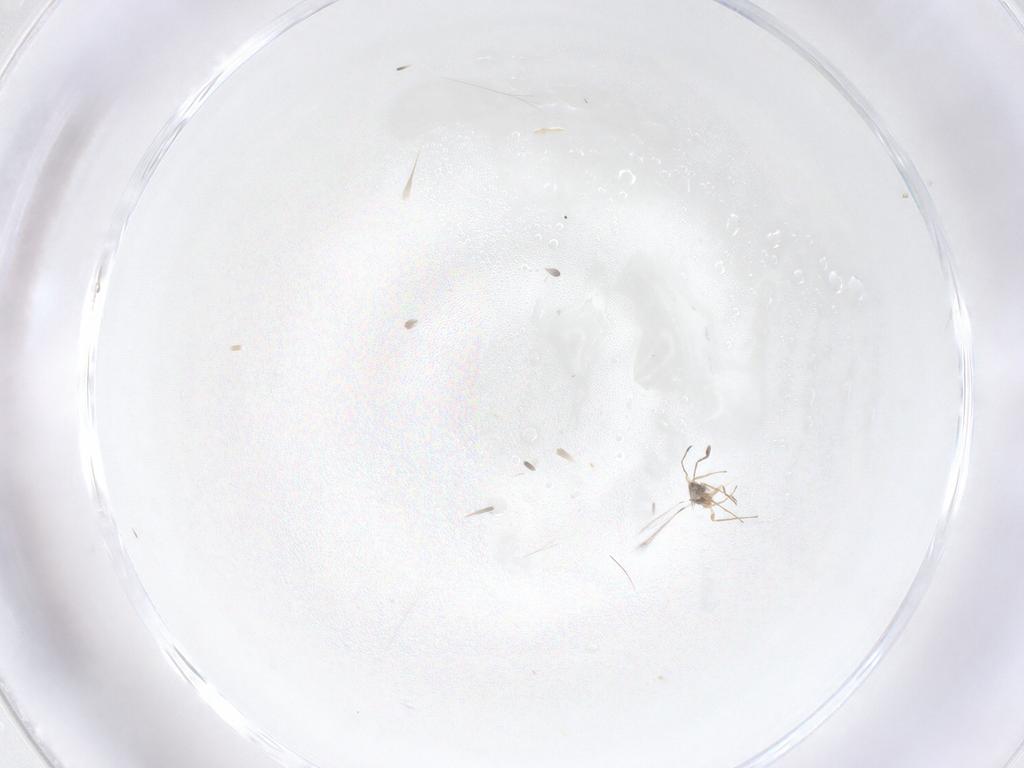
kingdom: Animalia
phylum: Arthropoda
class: Insecta
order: Hymenoptera
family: Mymaridae
